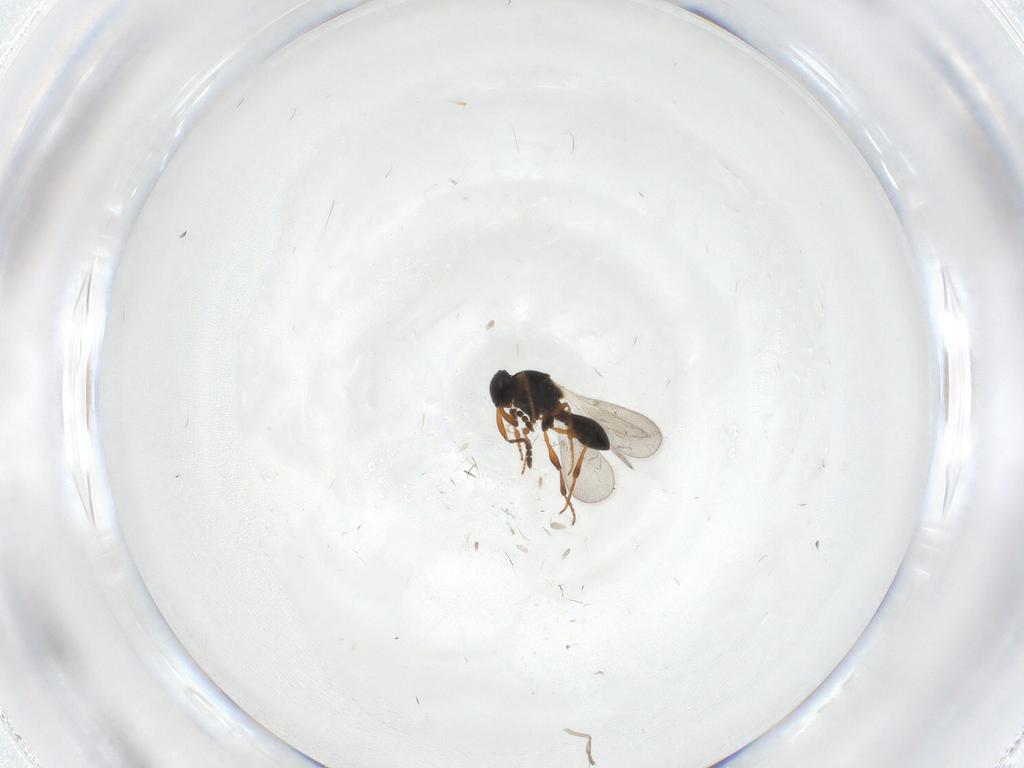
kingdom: Animalia
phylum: Arthropoda
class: Insecta
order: Hymenoptera
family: Platygastridae
